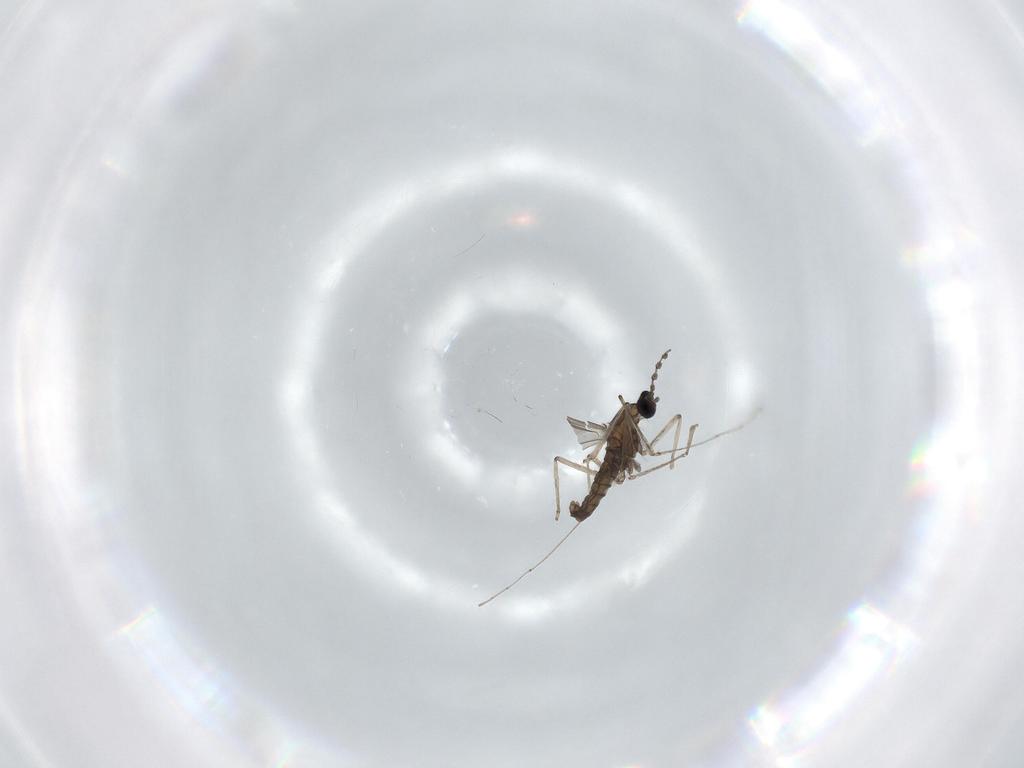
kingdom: Animalia
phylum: Arthropoda
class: Insecta
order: Diptera
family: Cecidomyiidae
